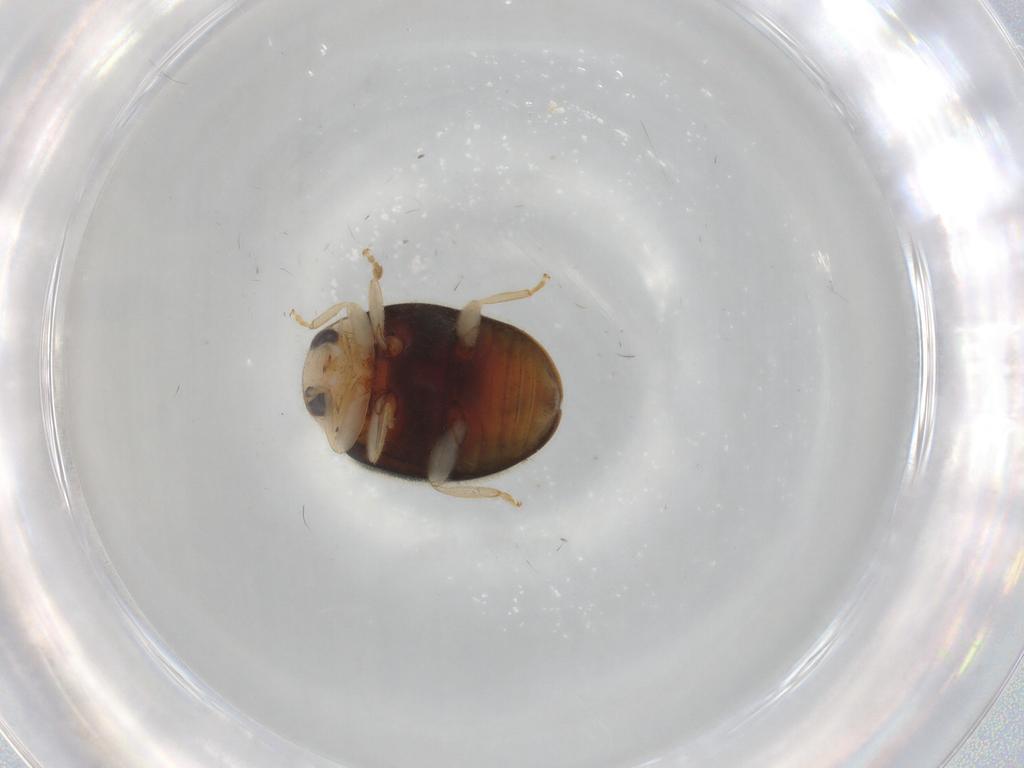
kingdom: Animalia
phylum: Arthropoda
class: Insecta
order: Coleoptera
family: Coccinellidae
